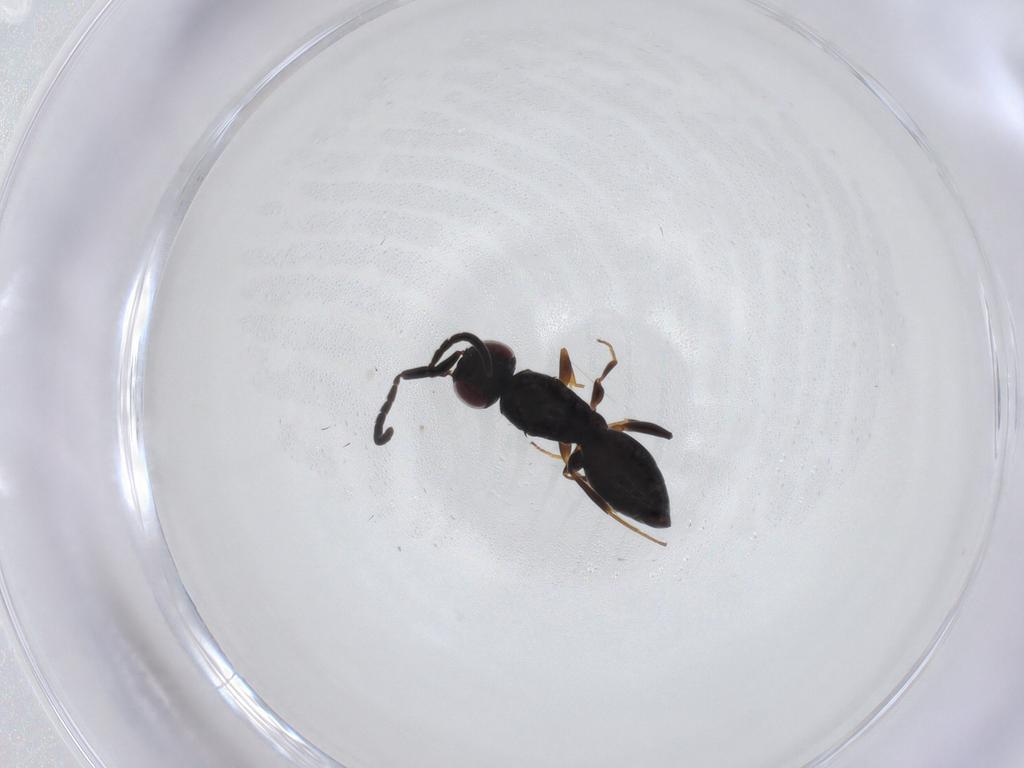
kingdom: Animalia
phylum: Arthropoda
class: Insecta
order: Hymenoptera
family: Megaspilidae
